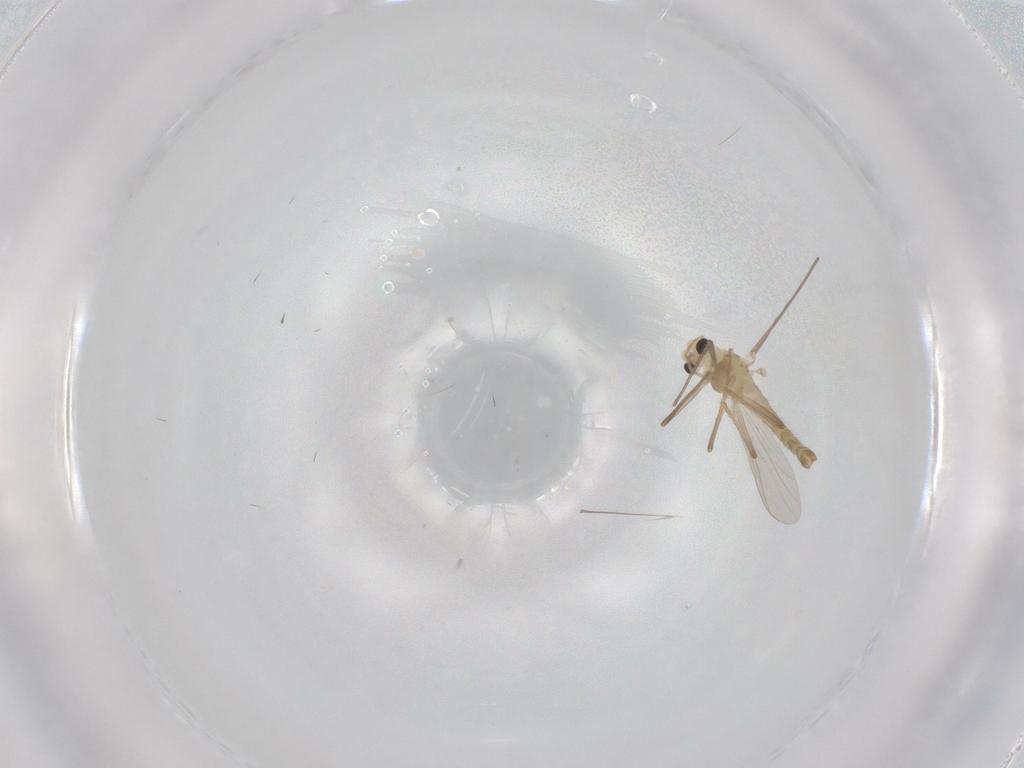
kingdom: Animalia
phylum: Arthropoda
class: Insecta
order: Diptera
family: Chironomidae
